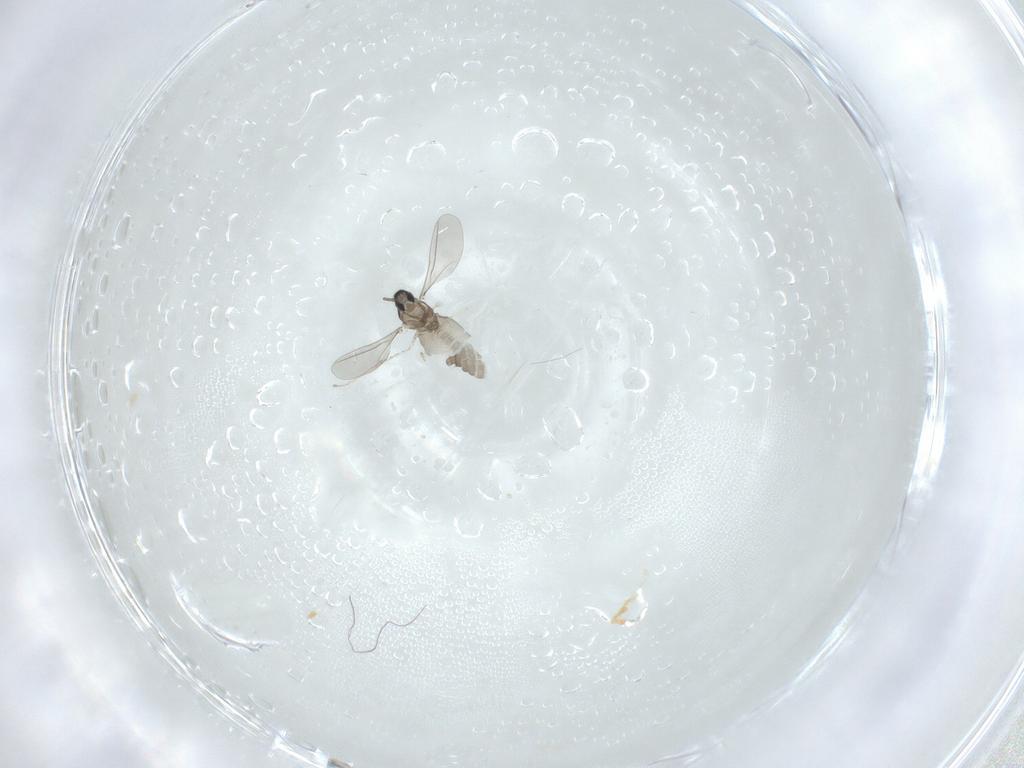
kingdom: Animalia
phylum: Arthropoda
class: Insecta
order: Diptera
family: Cecidomyiidae
